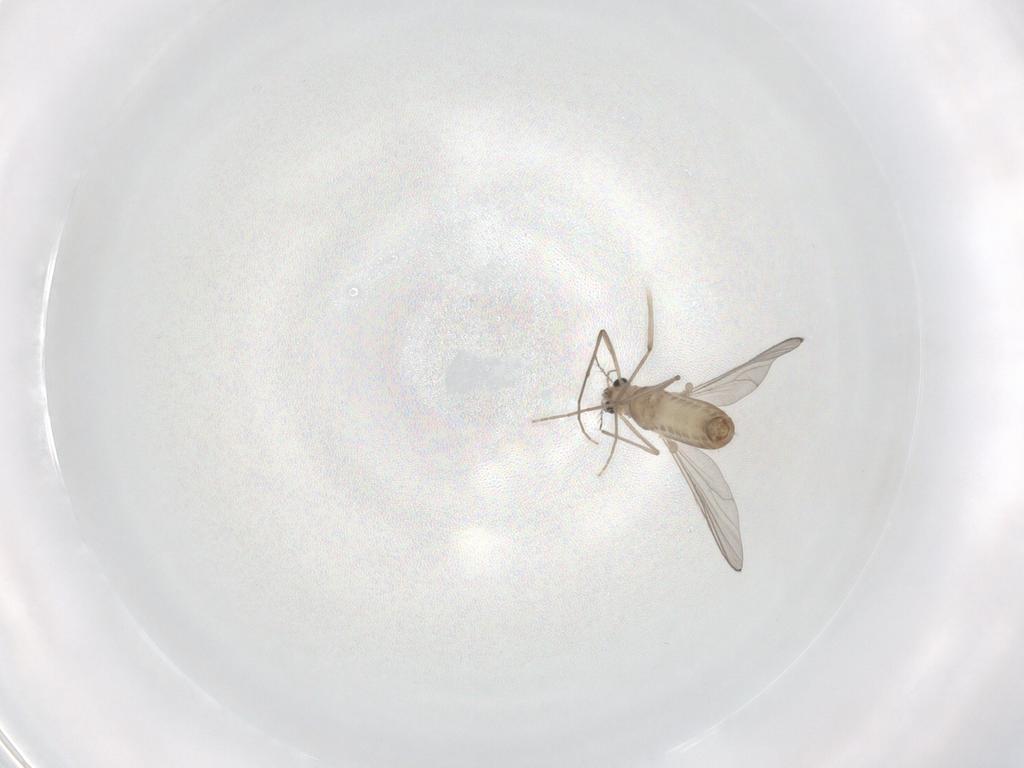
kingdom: Animalia
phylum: Arthropoda
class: Insecta
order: Diptera
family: Chironomidae
